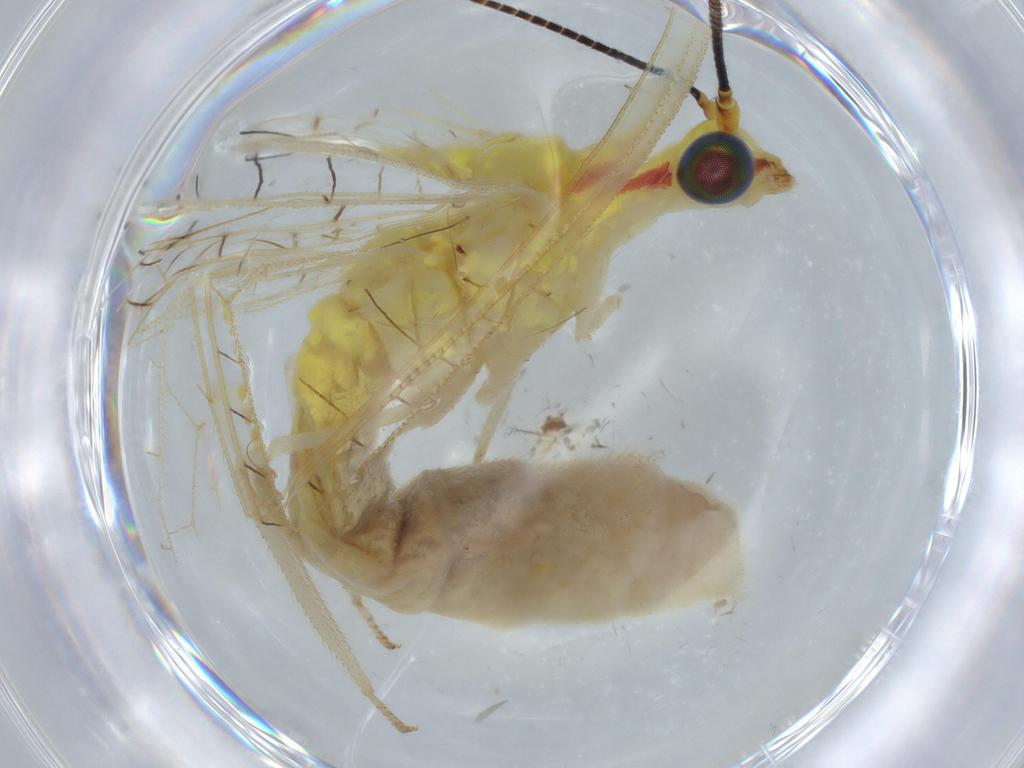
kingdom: Animalia
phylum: Arthropoda
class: Insecta
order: Neuroptera
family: Chrysopidae
